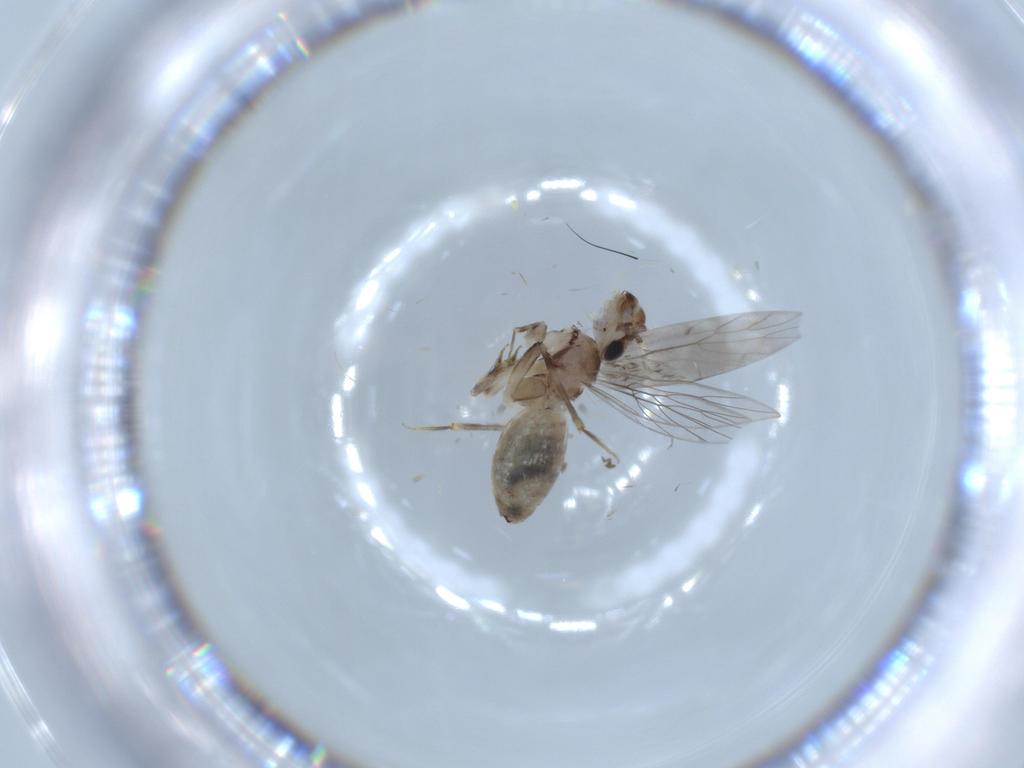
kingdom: Animalia
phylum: Arthropoda
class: Insecta
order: Psocodea
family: Lepidopsocidae
